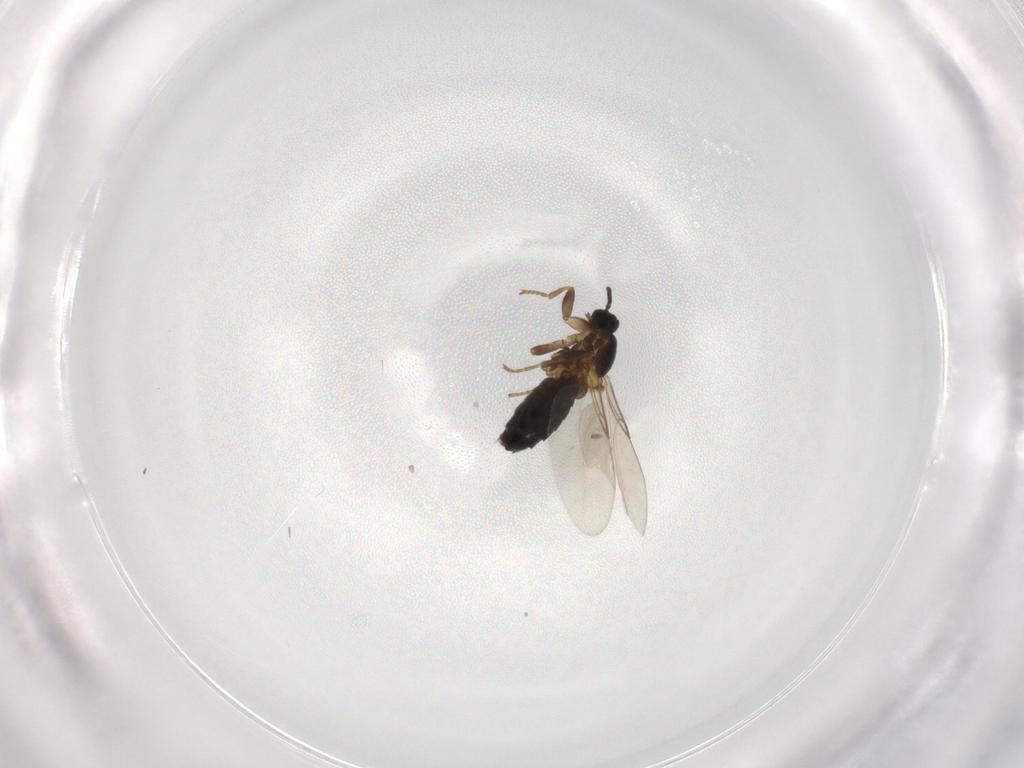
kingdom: Animalia
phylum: Arthropoda
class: Insecta
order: Diptera
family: Scatopsidae
